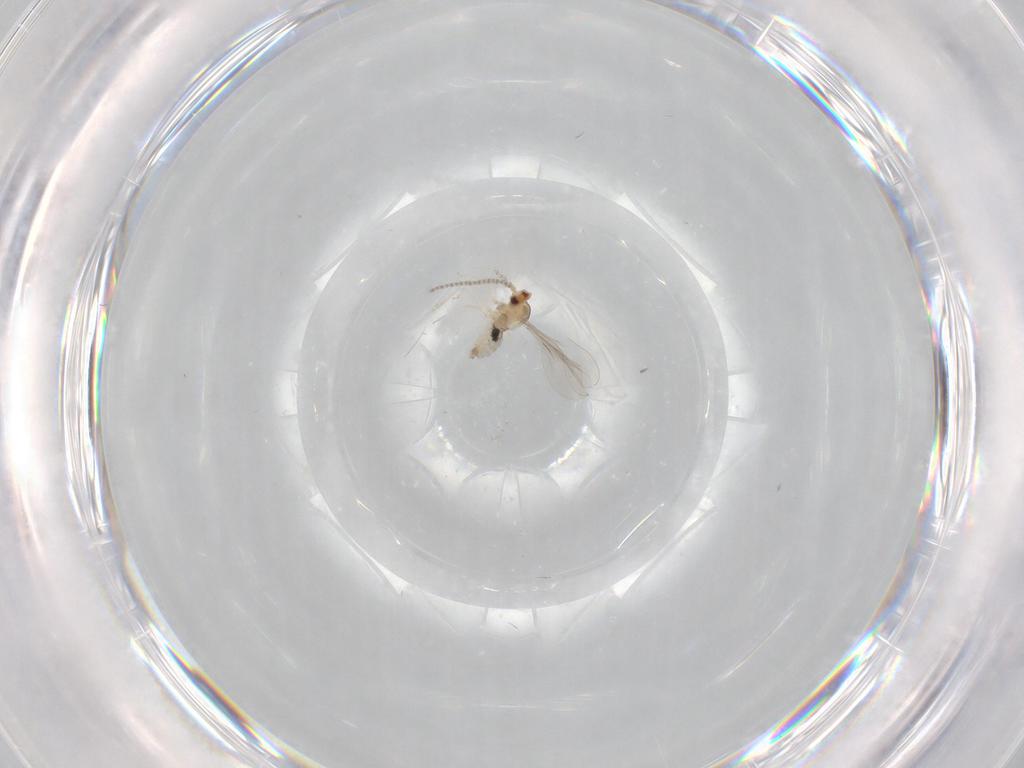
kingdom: Animalia
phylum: Arthropoda
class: Insecta
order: Diptera
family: Cecidomyiidae
